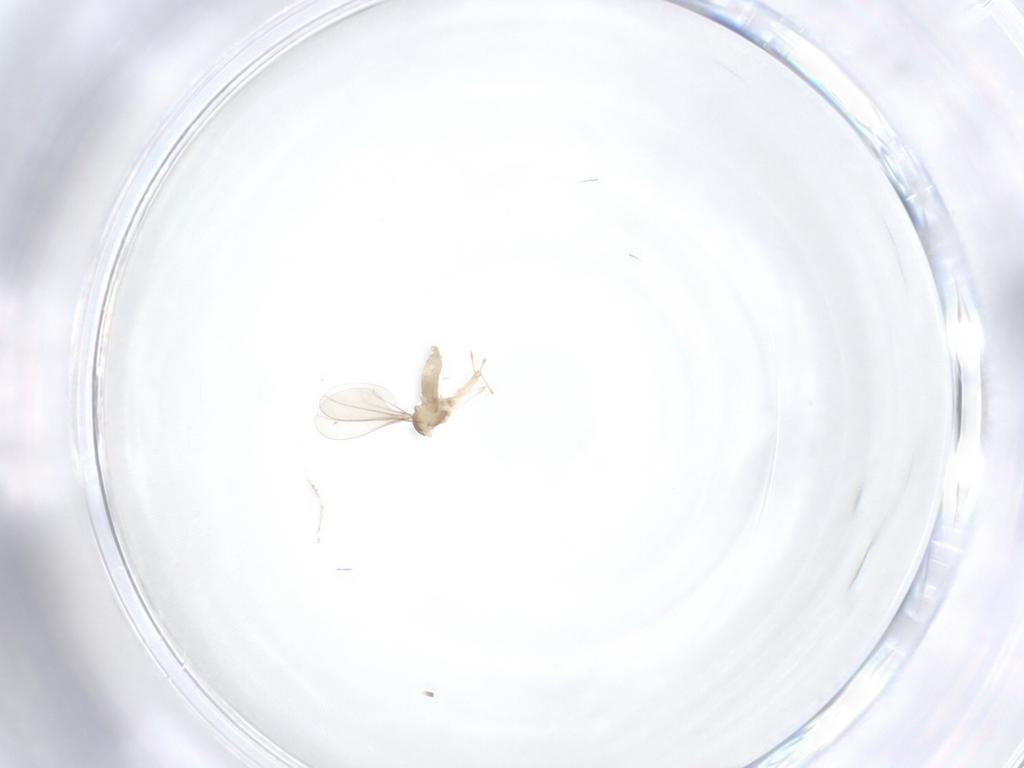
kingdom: Animalia
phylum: Arthropoda
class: Insecta
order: Diptera
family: Cecidomyiidae
